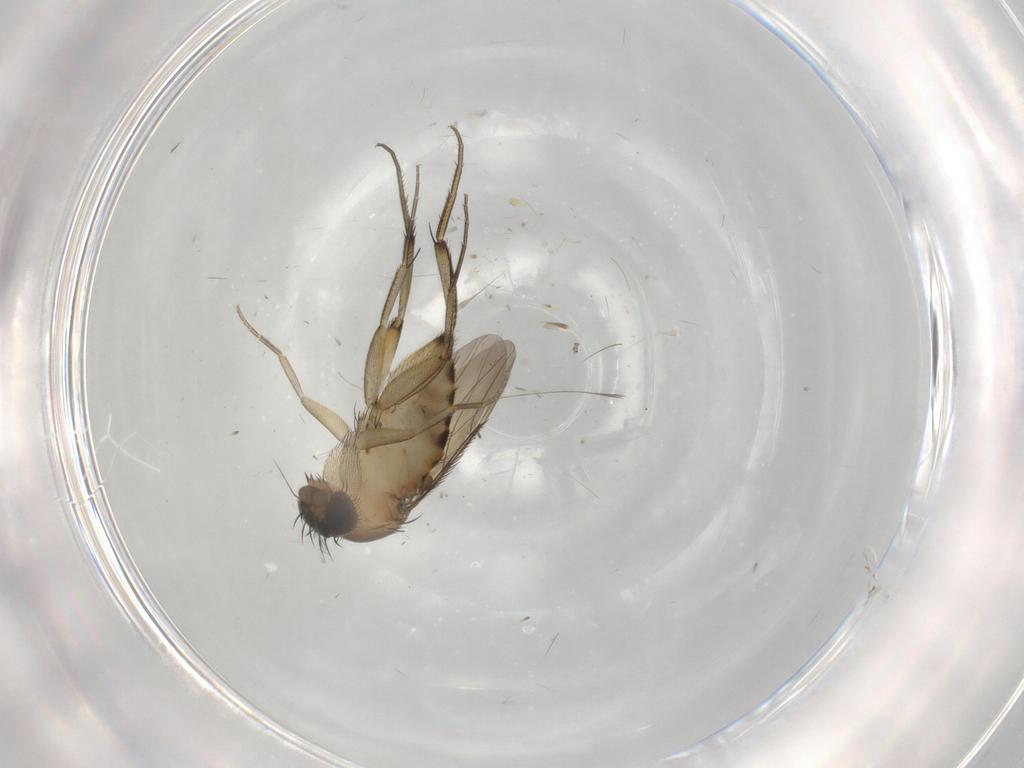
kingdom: Animalia
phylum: Arthropoda
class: Insecta
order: Diptera
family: Phoridae
